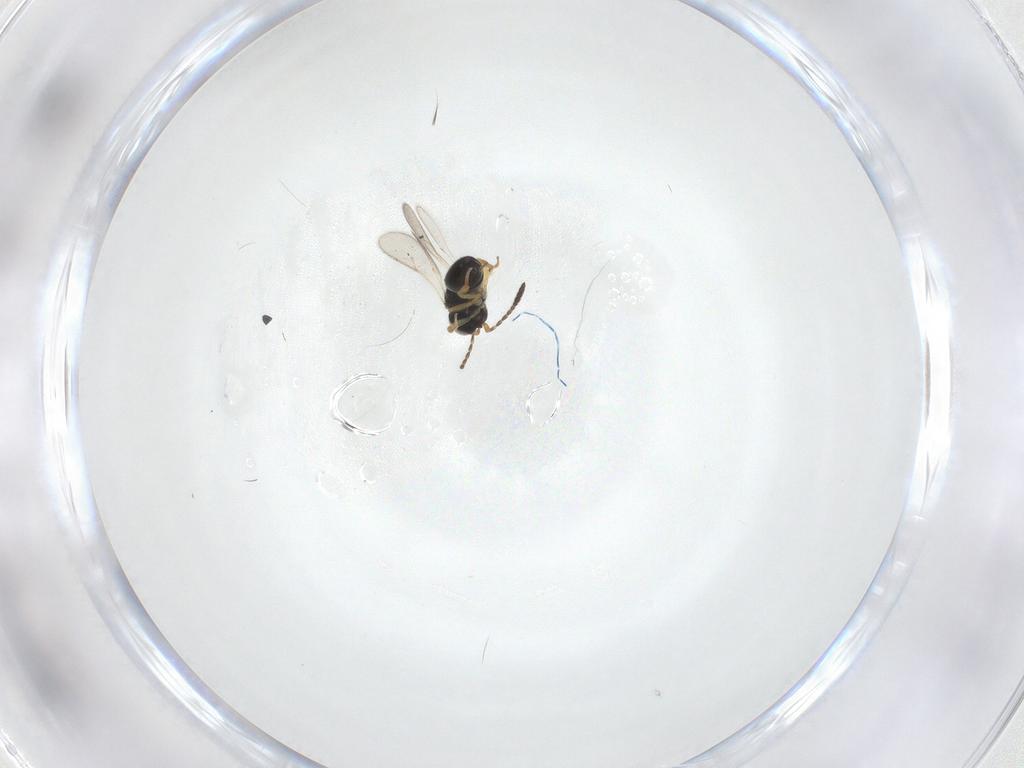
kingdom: Animalia
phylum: Arthropoda
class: Insecta
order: Hymenoptera
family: Scelionidae
